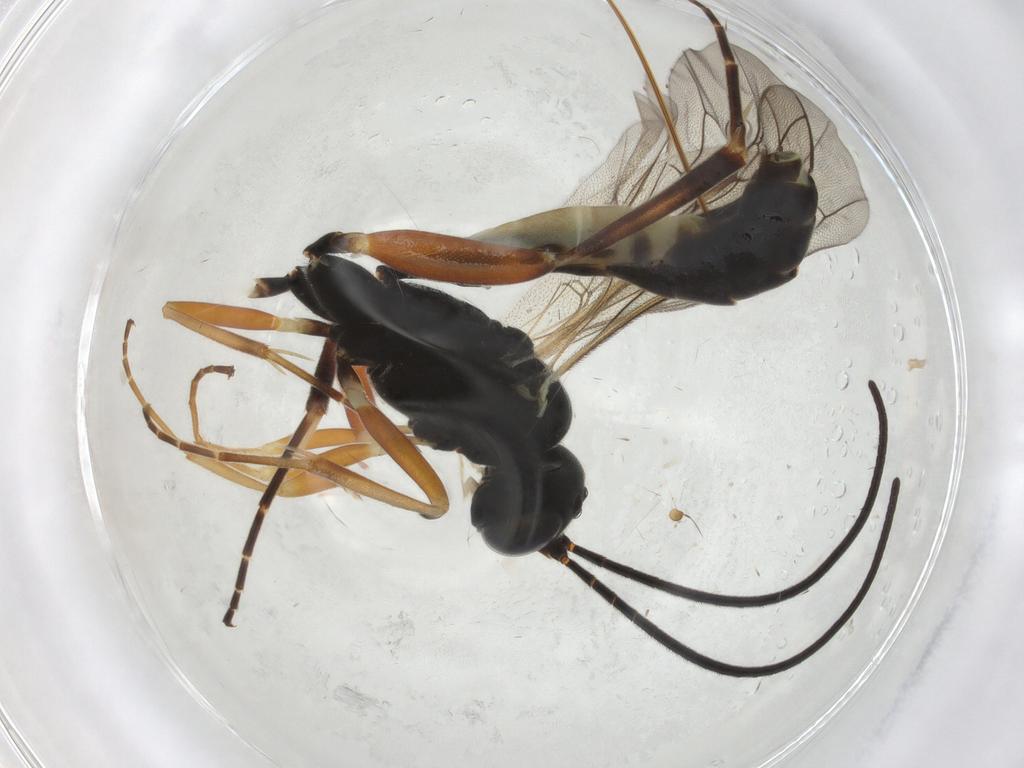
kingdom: Animalia
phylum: Arthropoda
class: Insecta
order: Hymenoptera
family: Ichneumonidae
